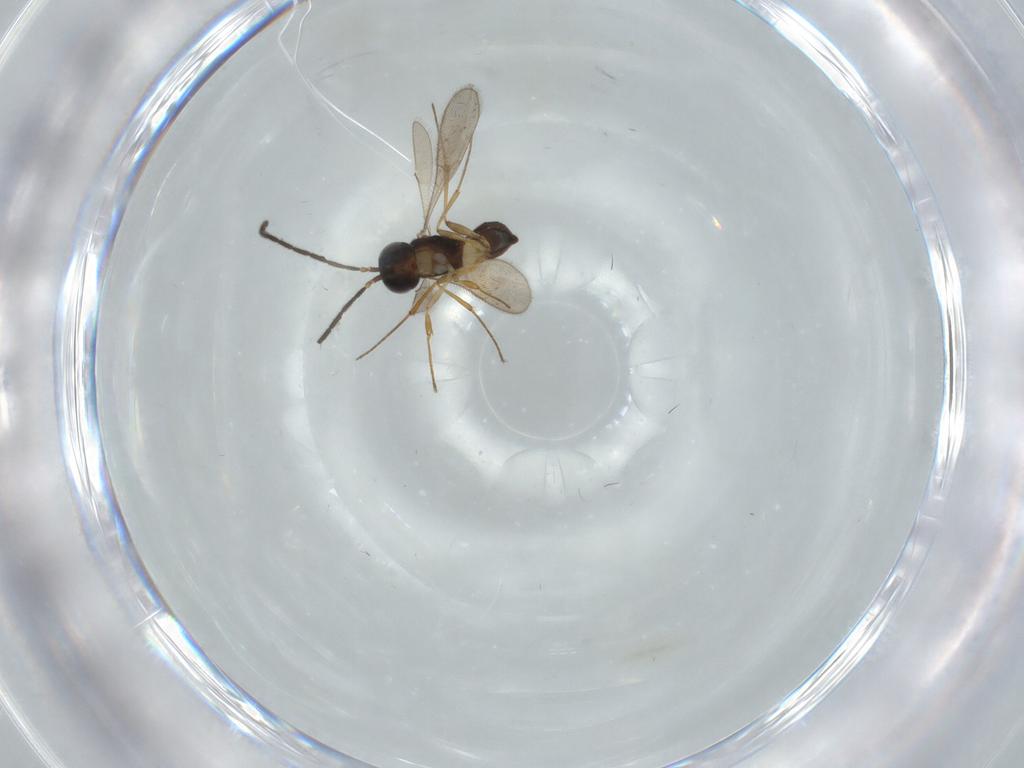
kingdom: Animalia
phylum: Arthropoda
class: Insecta
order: Hymenoptera
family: Scelionidae
